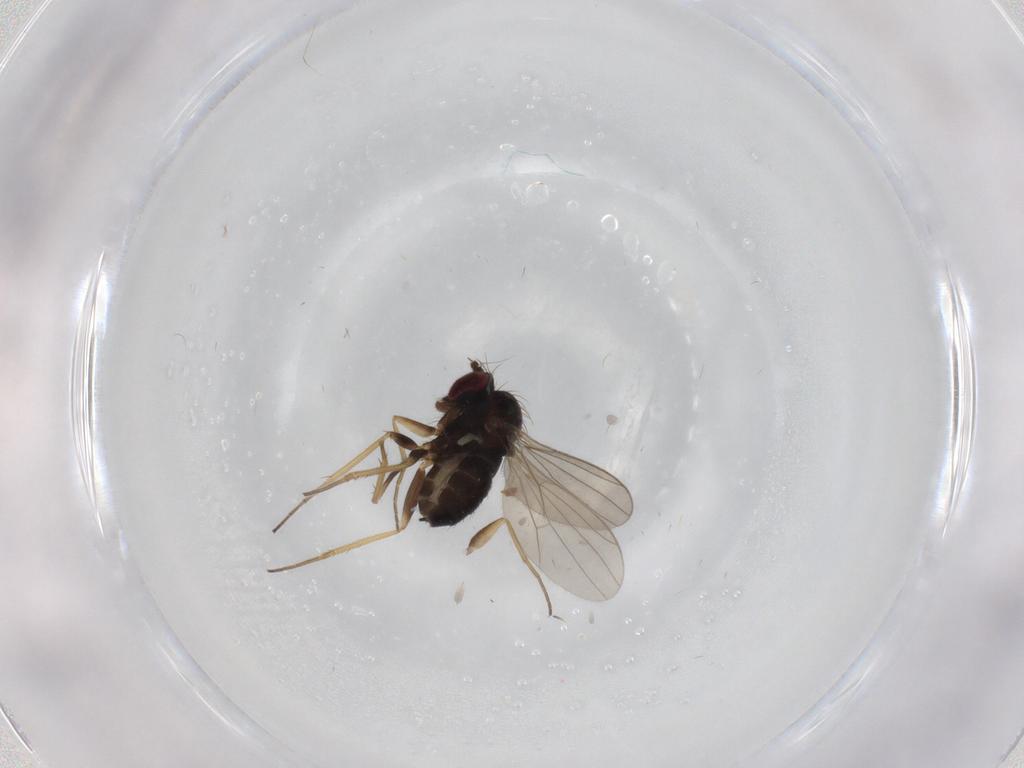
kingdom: Animalia
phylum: Arthropoda
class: Insecta
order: Diptera
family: Dolichopodidae
